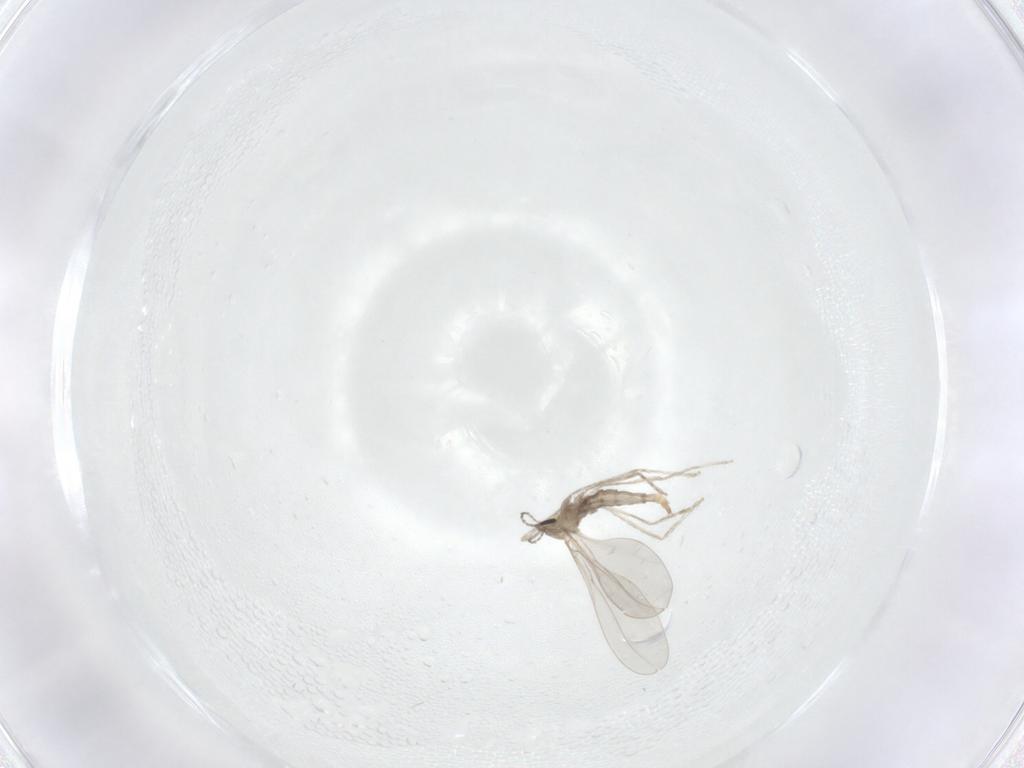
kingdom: Animalia
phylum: Arthropoda
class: Insecta
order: Diptera
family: Cecidomyiidae
